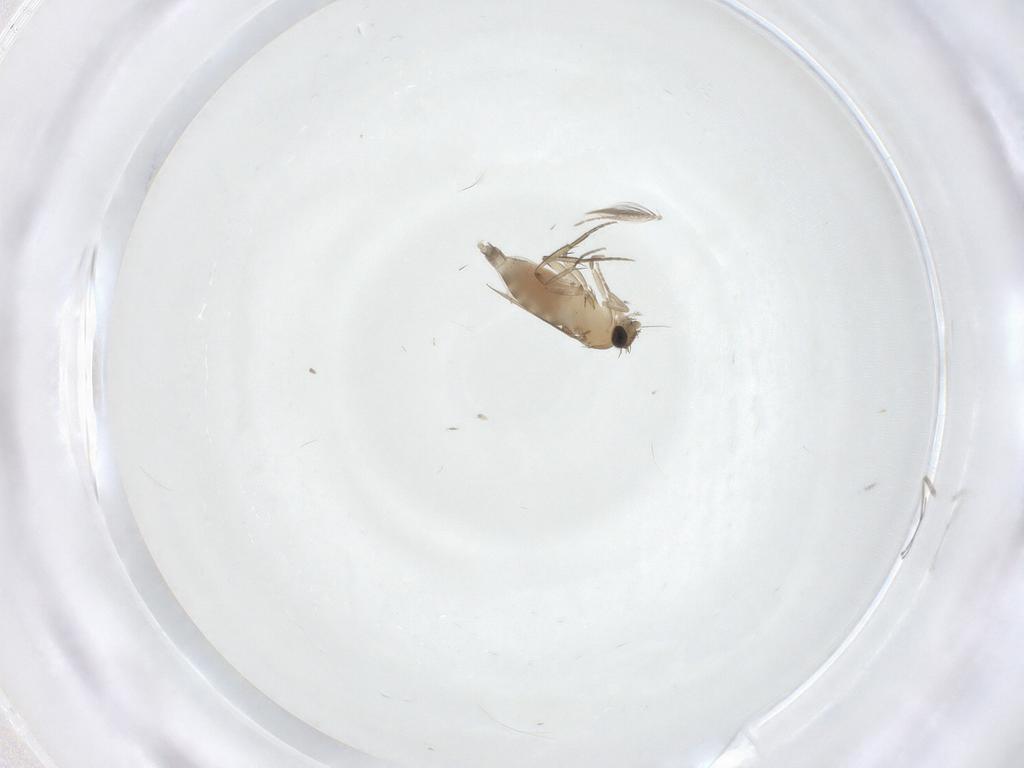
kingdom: Animalia
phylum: Arthropoda
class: Insecta
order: Diptera
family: Phoridae
